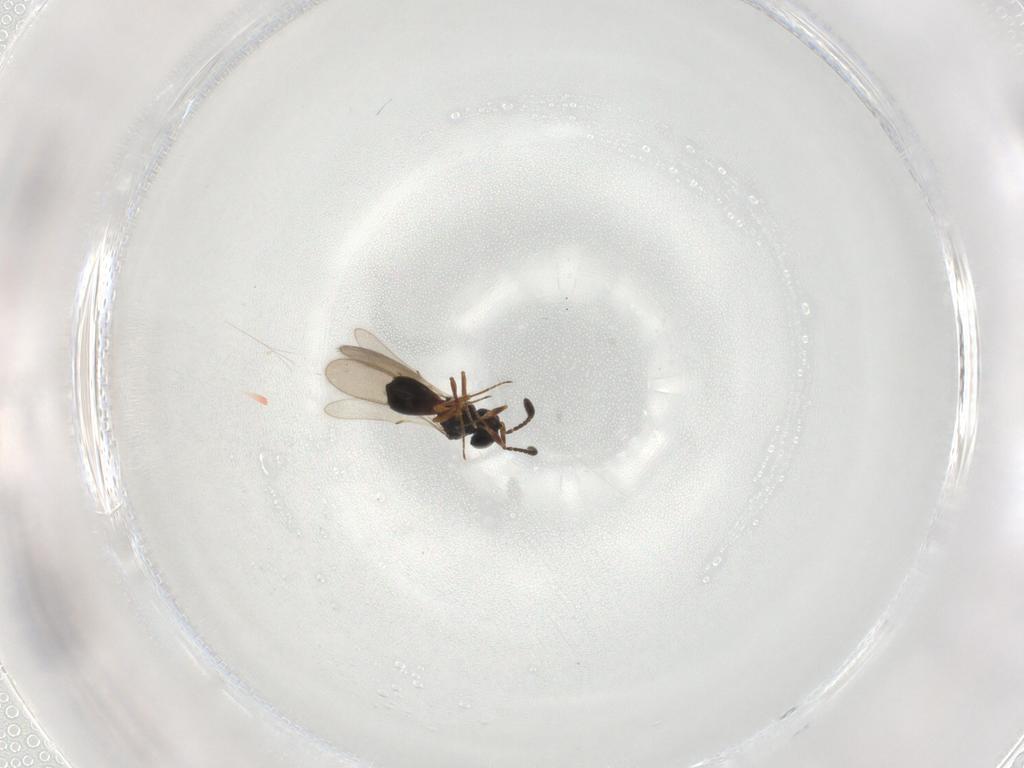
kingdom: Animalia
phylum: Arthropoda
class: Insecta
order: Hymenoptera
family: Scelionidae
